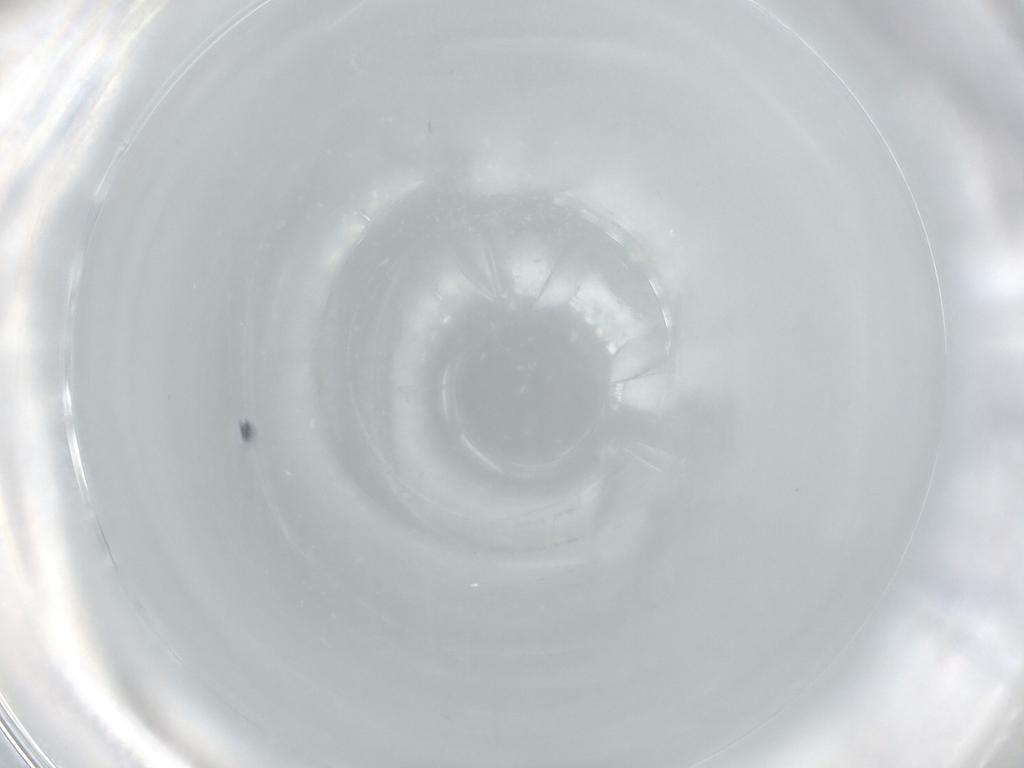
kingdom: Animalia
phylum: Arthropoda
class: Insecta
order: Diptera
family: Cecidomyiidae
